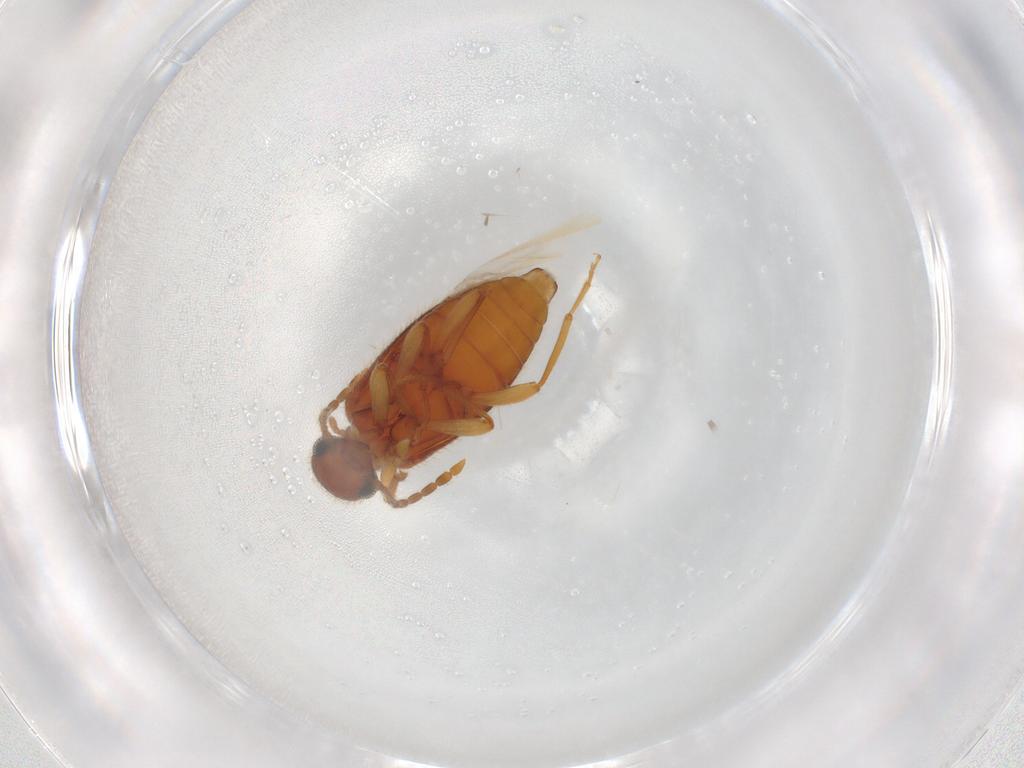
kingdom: Animalia
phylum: Arthropoda
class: Insecta
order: Coleoptera
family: Anthicidae
